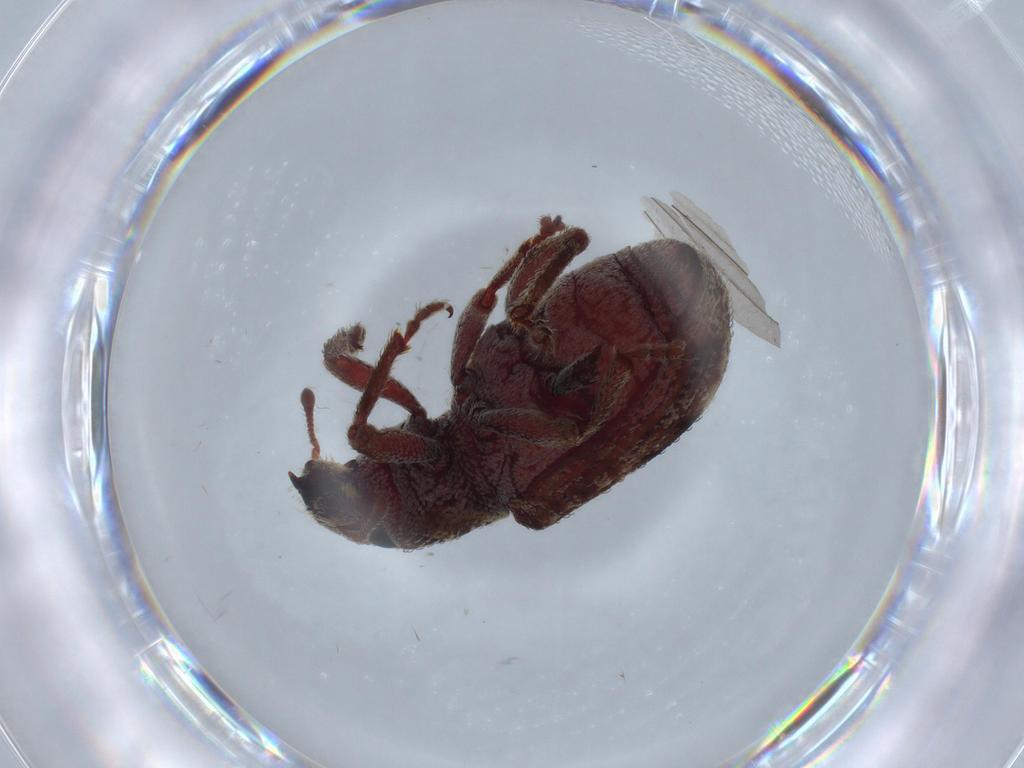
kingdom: Animalia
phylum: Arthropoda
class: Insecta
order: Coleoptera
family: Curculionidae
